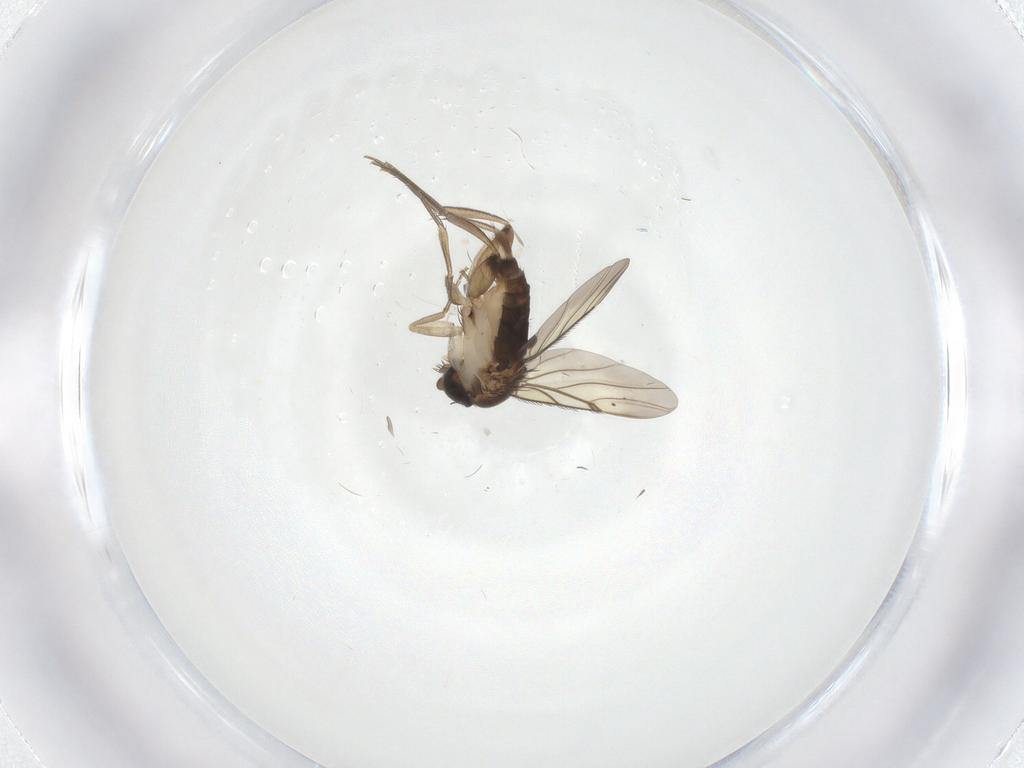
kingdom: Animalia
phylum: Arthropoda
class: Insecta
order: Diptera
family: Phoridae
